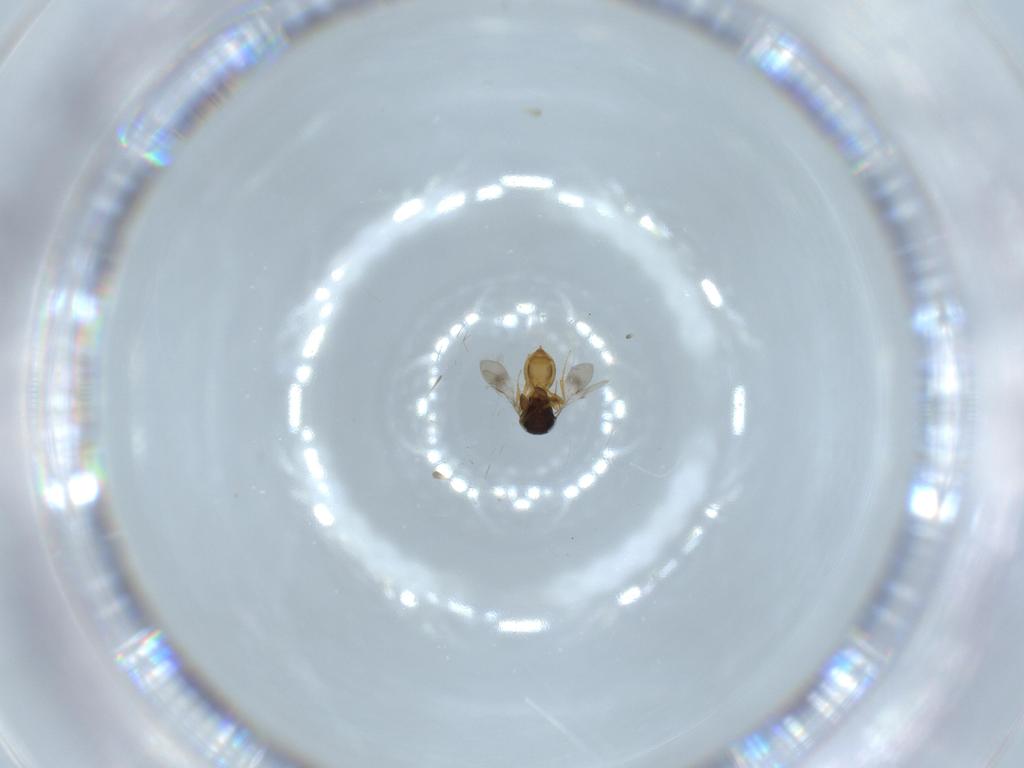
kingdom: Animalia
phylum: Arthropoda
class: Insecta
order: Hymenoptera
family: Scelionidae
